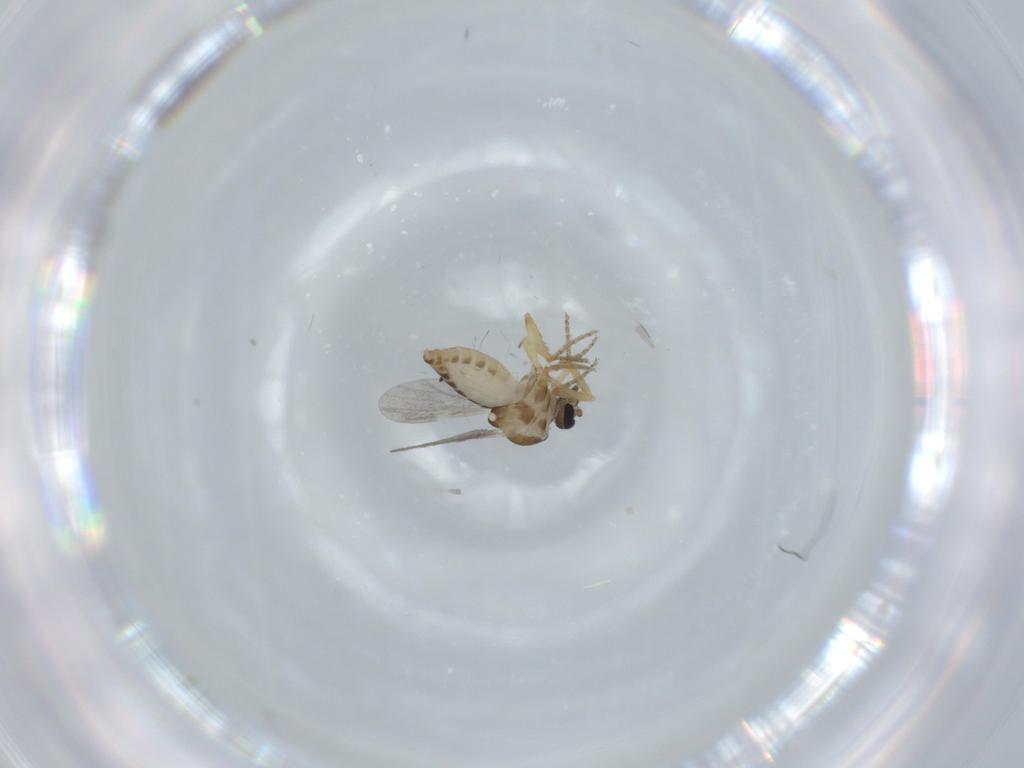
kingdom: Animalia
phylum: Arthropoda
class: Insecta
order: Diptera
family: Ceratopogonidae
